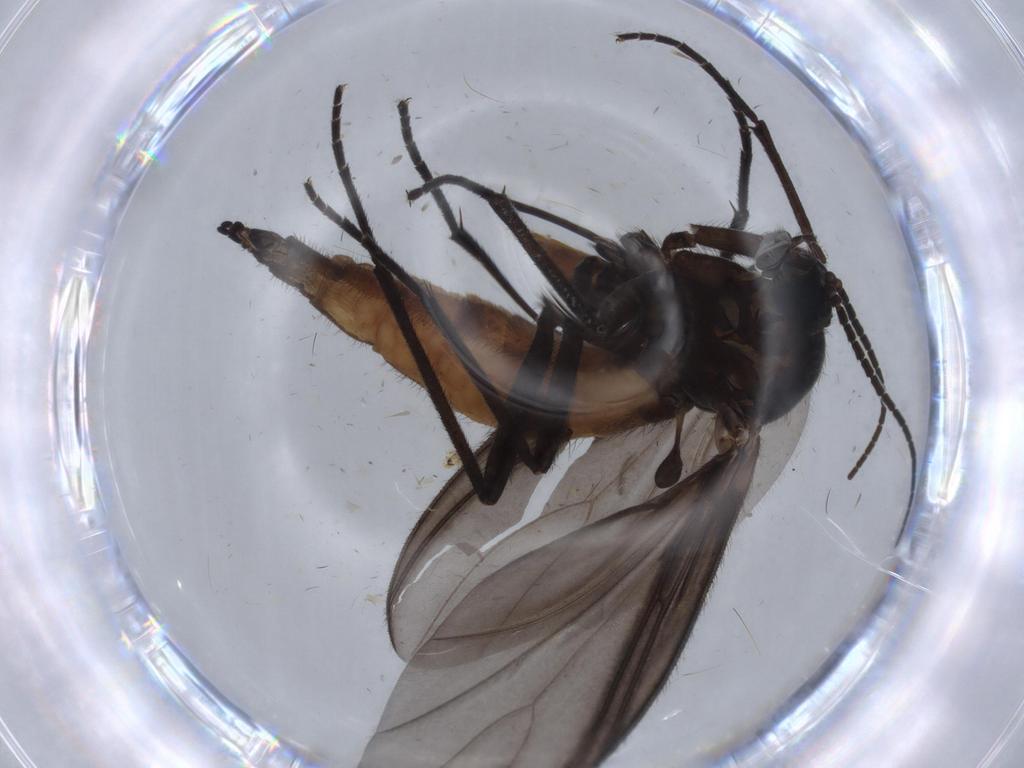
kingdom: Animalia
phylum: Arthropoda
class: Insecta
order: Diptera
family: Sciaridae
